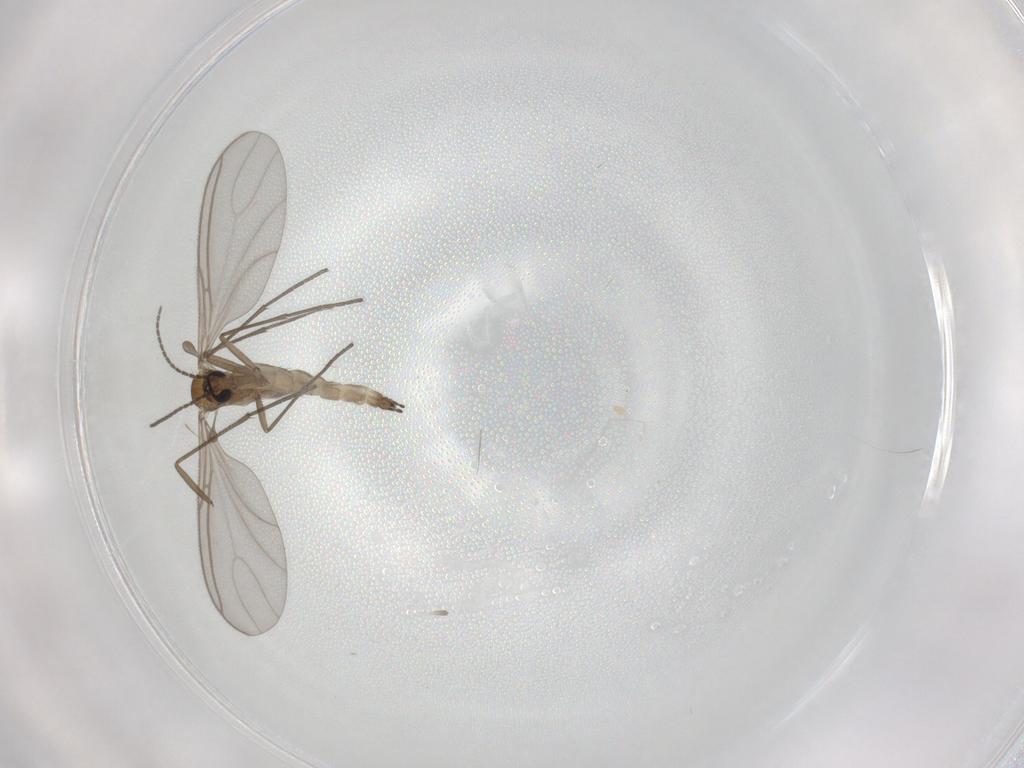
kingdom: Animalia
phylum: Arthropoda
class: Insecta
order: Diptera
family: Sciaridae
